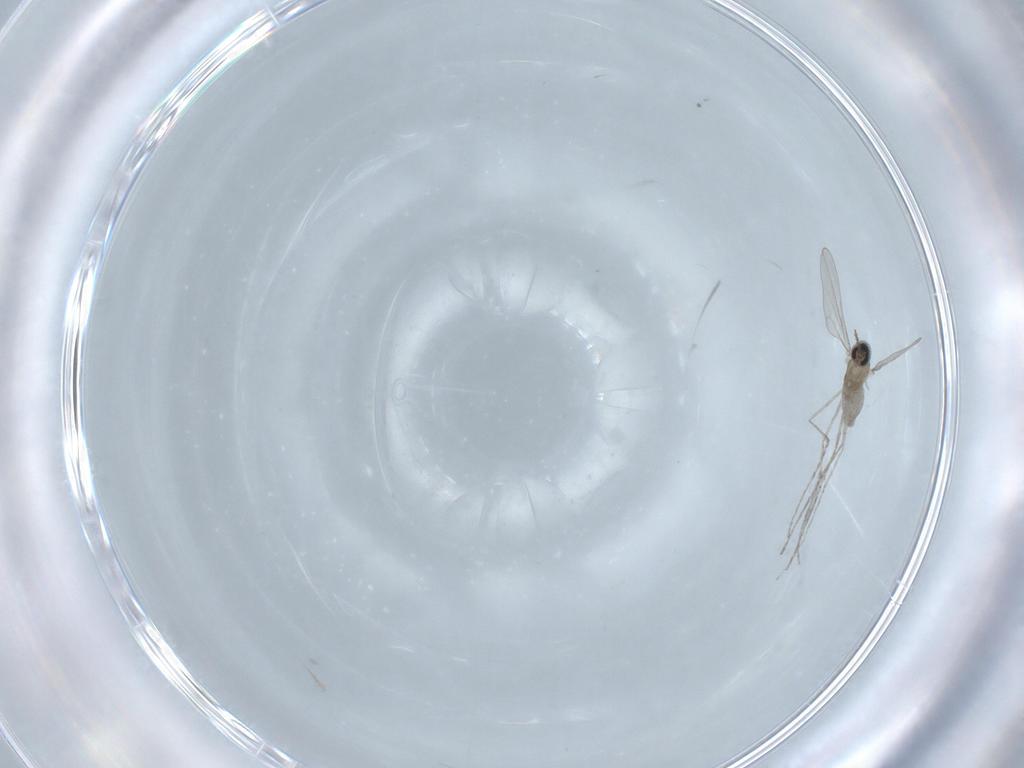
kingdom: Animalia
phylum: Arthropoda
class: Insecta
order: Diptera
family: Cecidomyiidae
